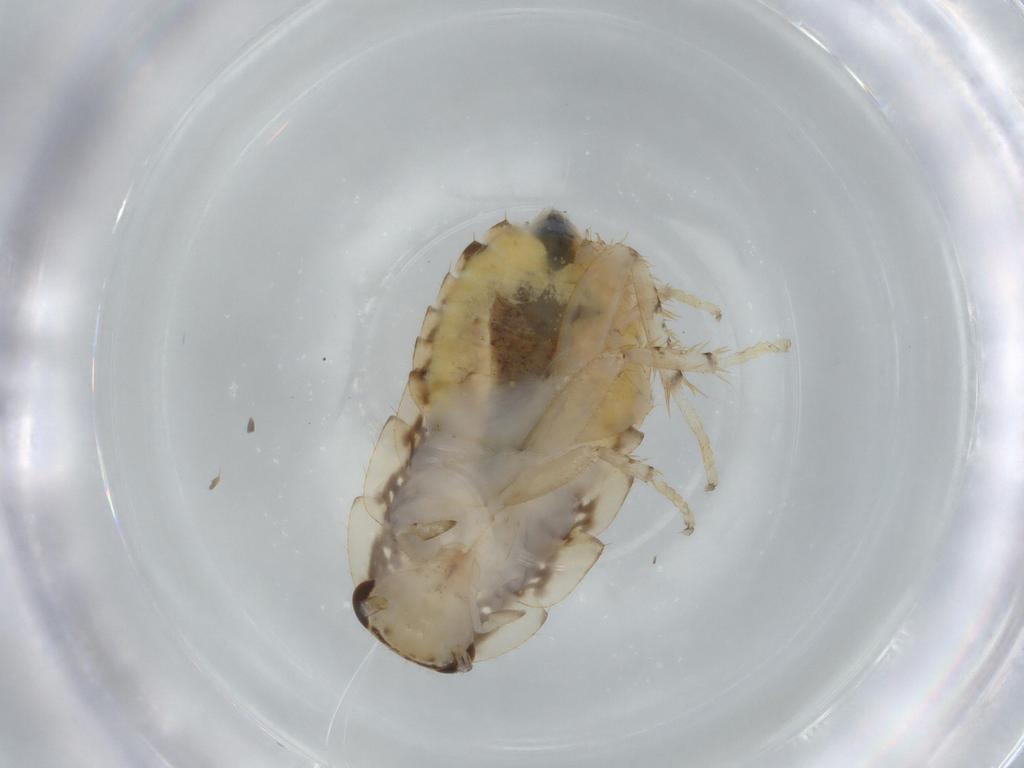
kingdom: Animalia
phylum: Arthropoda
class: Insecta
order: Blattodea
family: Ectobiidae
